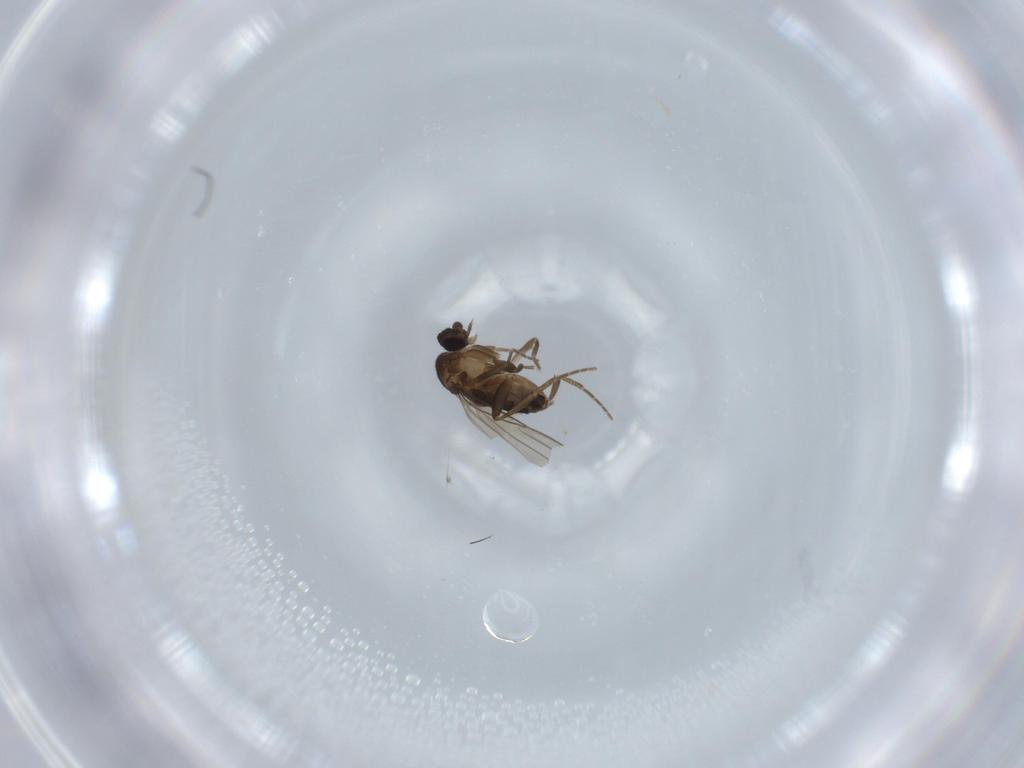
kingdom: Animalia
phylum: Arthropoda
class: Insecta
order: Diptera
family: Phoridae
